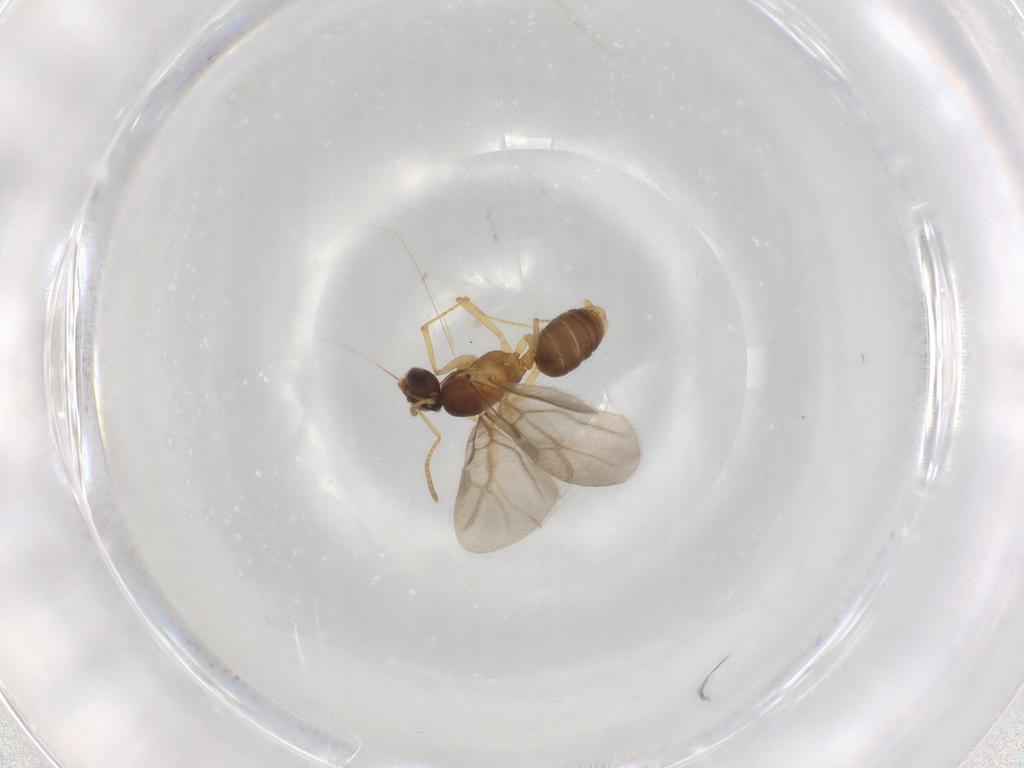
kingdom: Animalia
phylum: Arthropoda
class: Insecta
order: Hymenoptera
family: Formicidae
